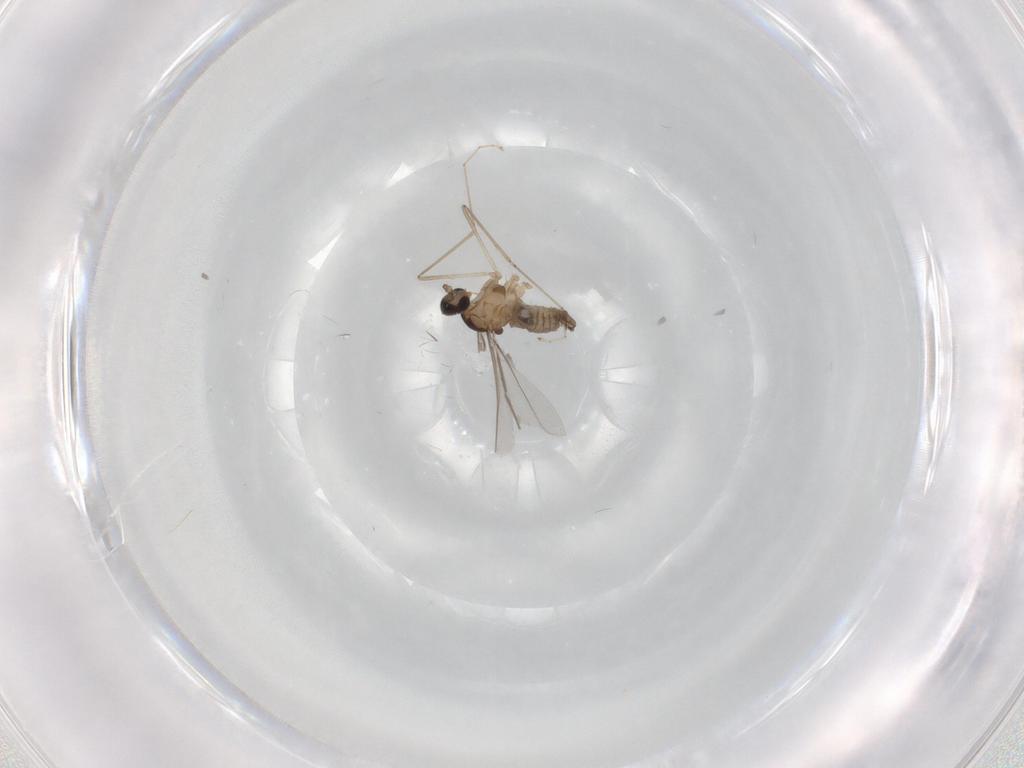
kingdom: Animalia
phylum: Arthropoda
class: Insecta
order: Diptera
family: Cecidomyiidae
